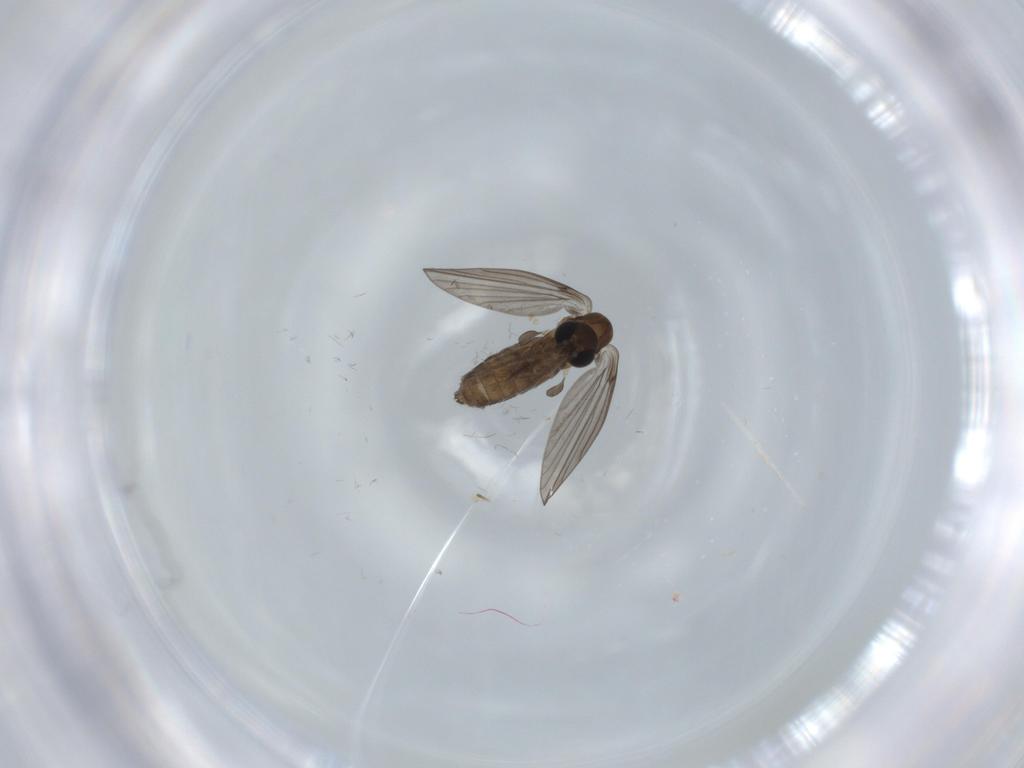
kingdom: Animalia
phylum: Arthropoda
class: Insecta
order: Diptera
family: Psychodidae
